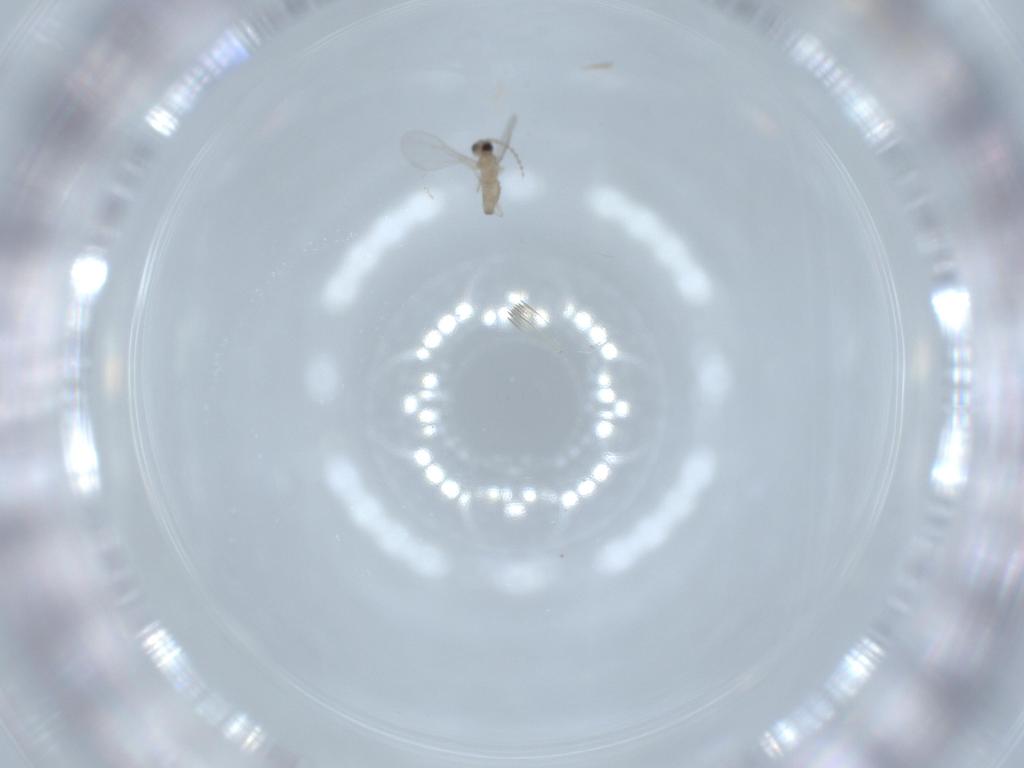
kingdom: Animalia
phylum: Arthropoda
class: Insecta
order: Diptera
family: Cecidomyiidae
